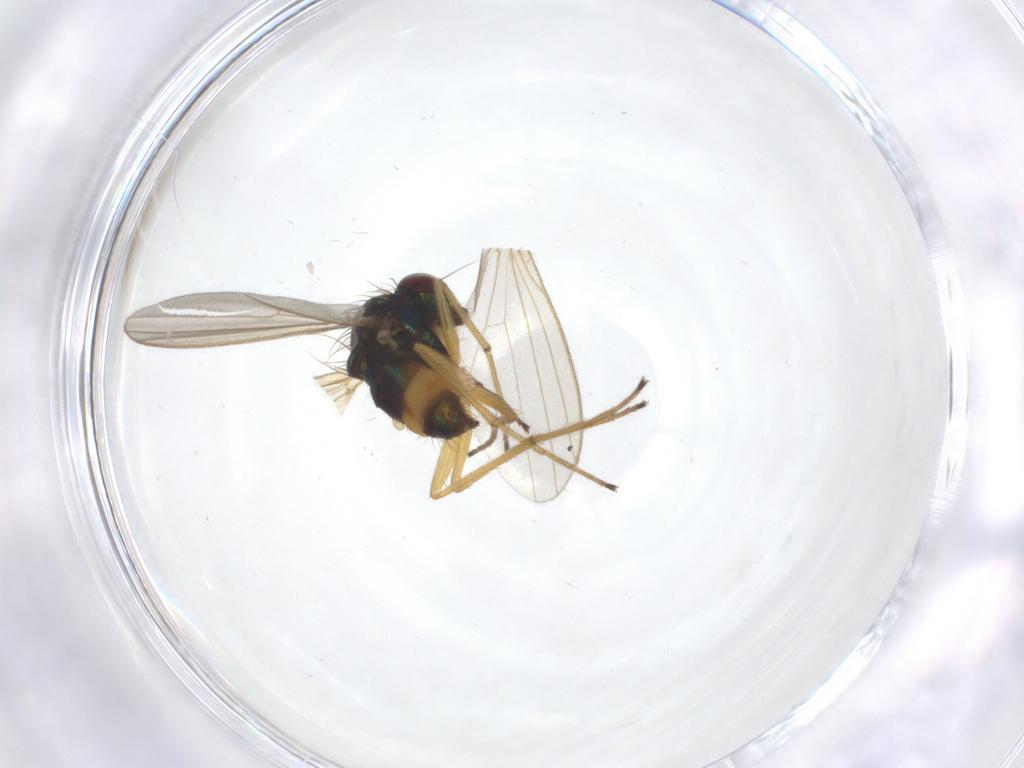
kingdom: Animalia
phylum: Arthropoda
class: Insecta
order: Diptera
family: Dolichopodidae
